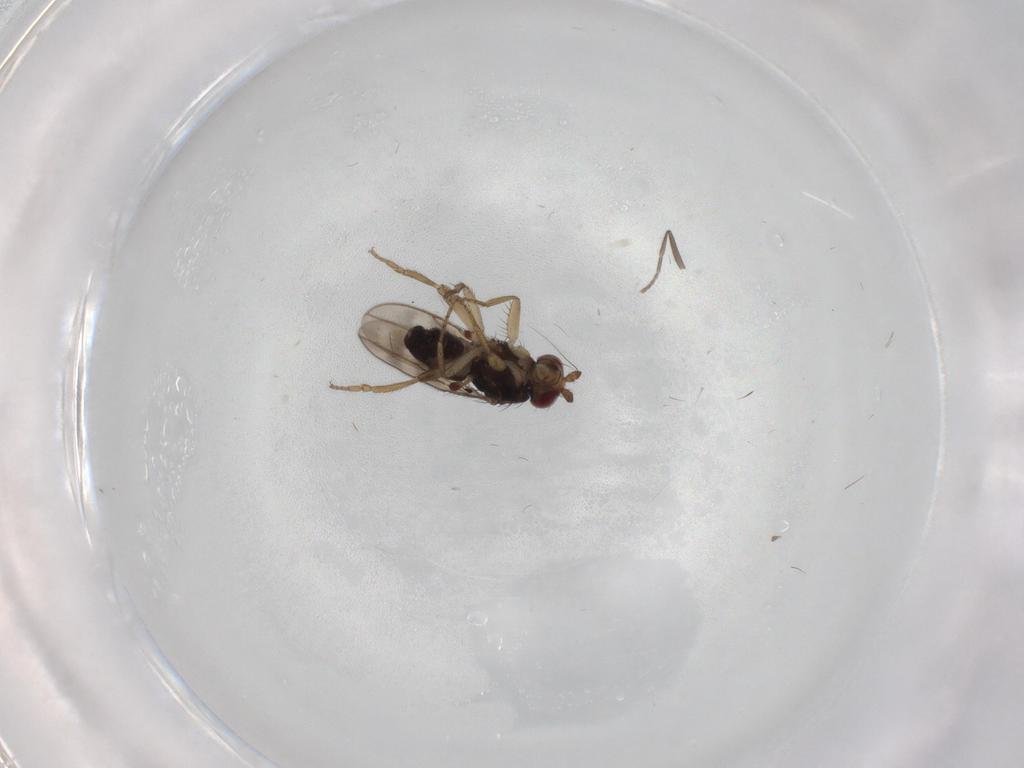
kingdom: Animalia
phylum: Arthropoda
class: Insecta
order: Diptera
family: Sphaeroceridae
